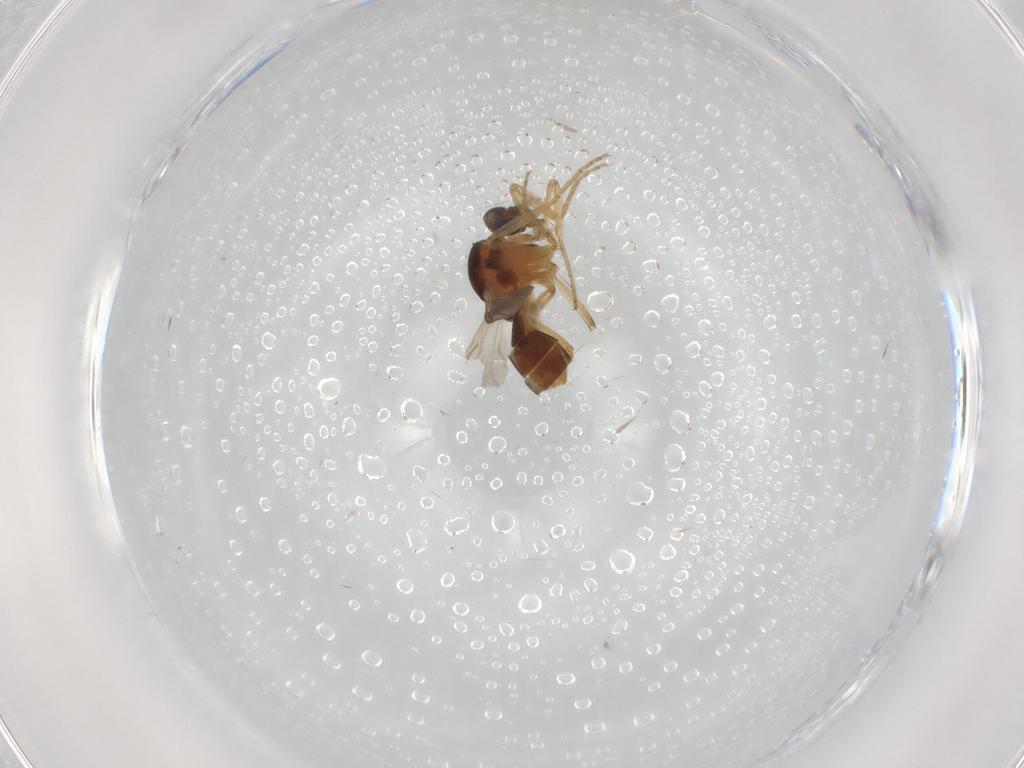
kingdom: Animalia
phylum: Arthropoda
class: Insecta
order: Diptera
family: Ceratopogonidae
